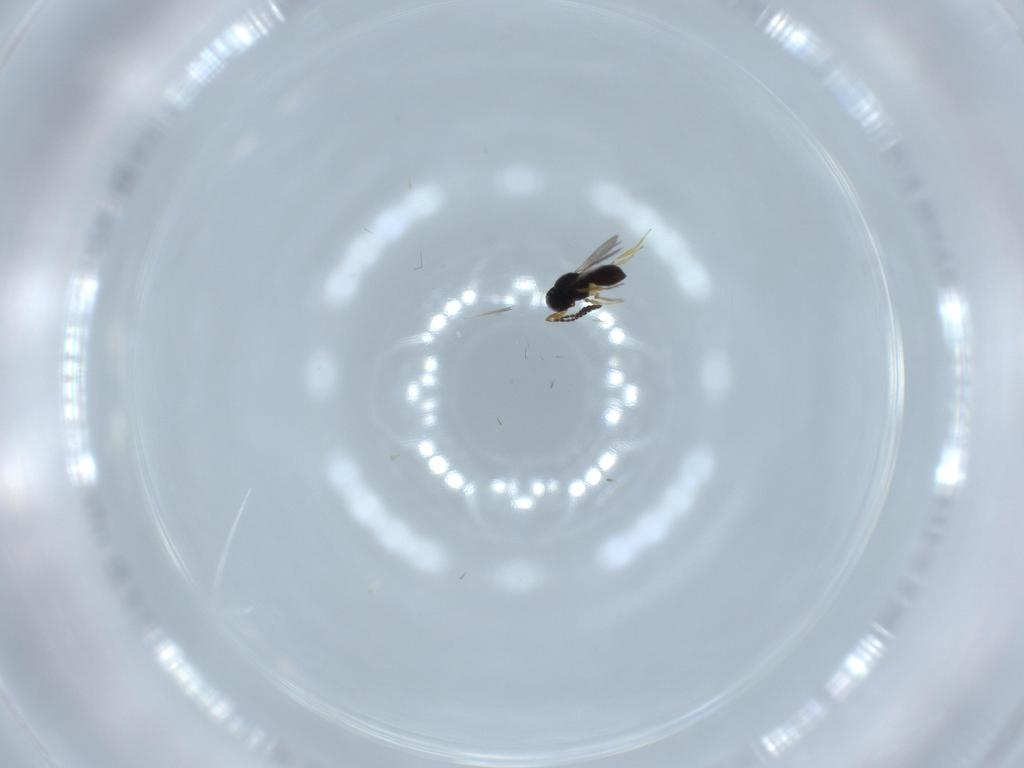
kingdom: Animalia
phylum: Arthropoda
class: Insecta
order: Hymenoptera
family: Scelionidae
